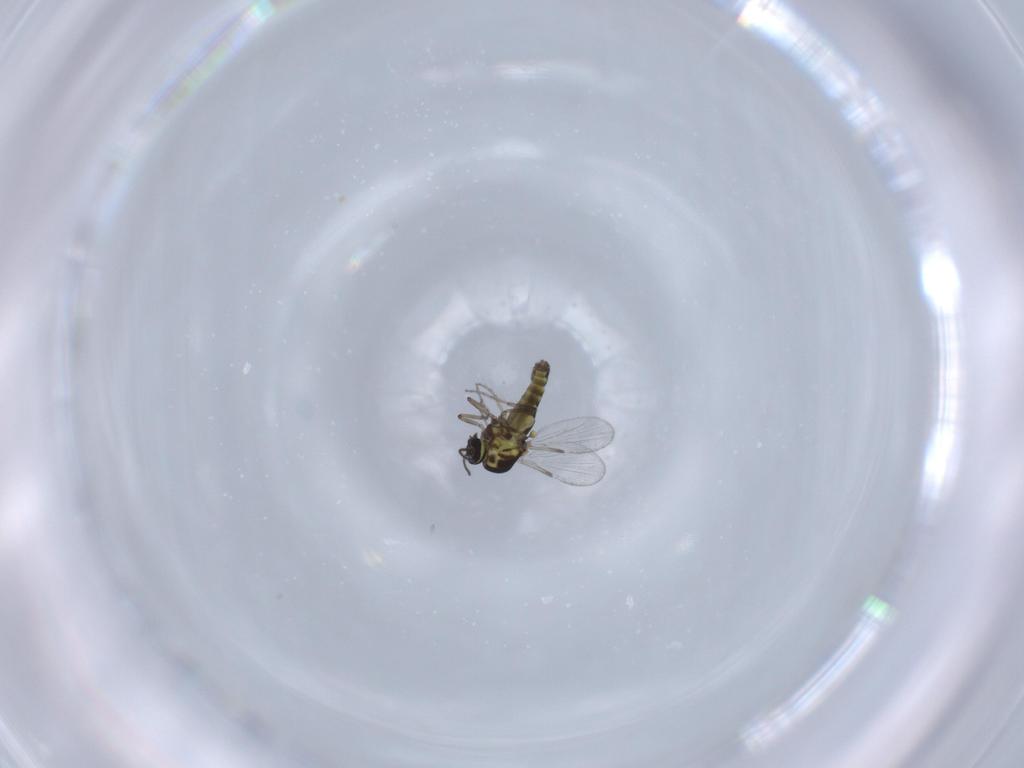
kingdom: Animalia
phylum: Arthropoda
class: Insecta
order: Diptera
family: Ceratopogonidae
